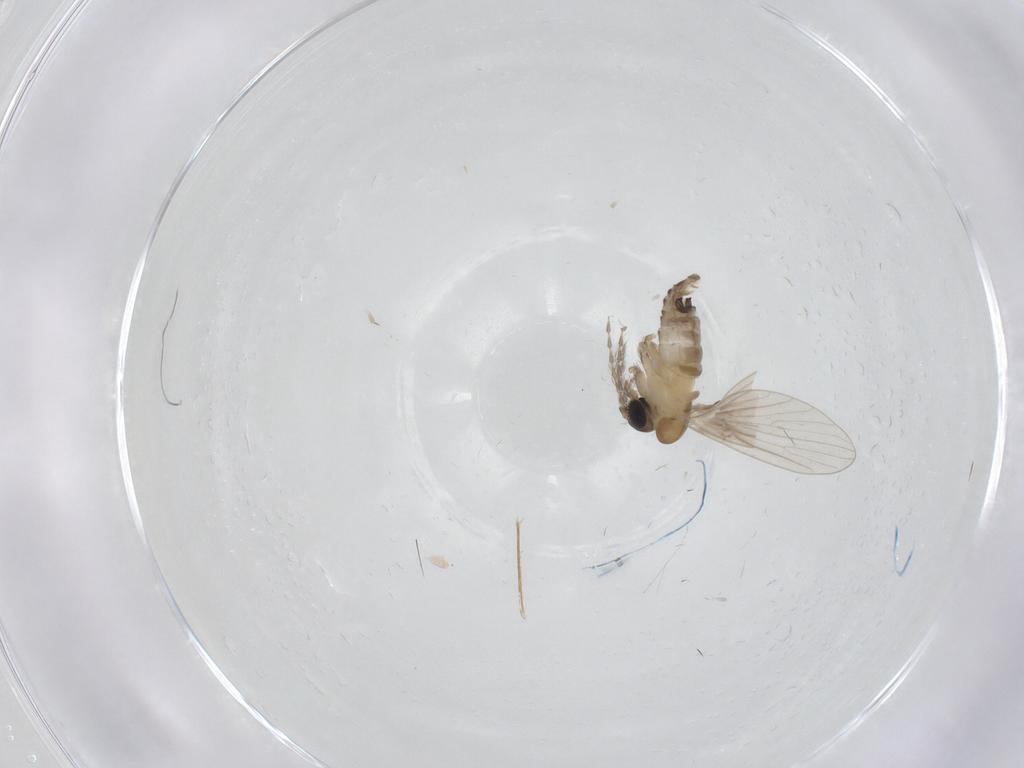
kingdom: Animalia
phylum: Arthropoda
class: Insecta
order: Diptera
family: Psychodidae
